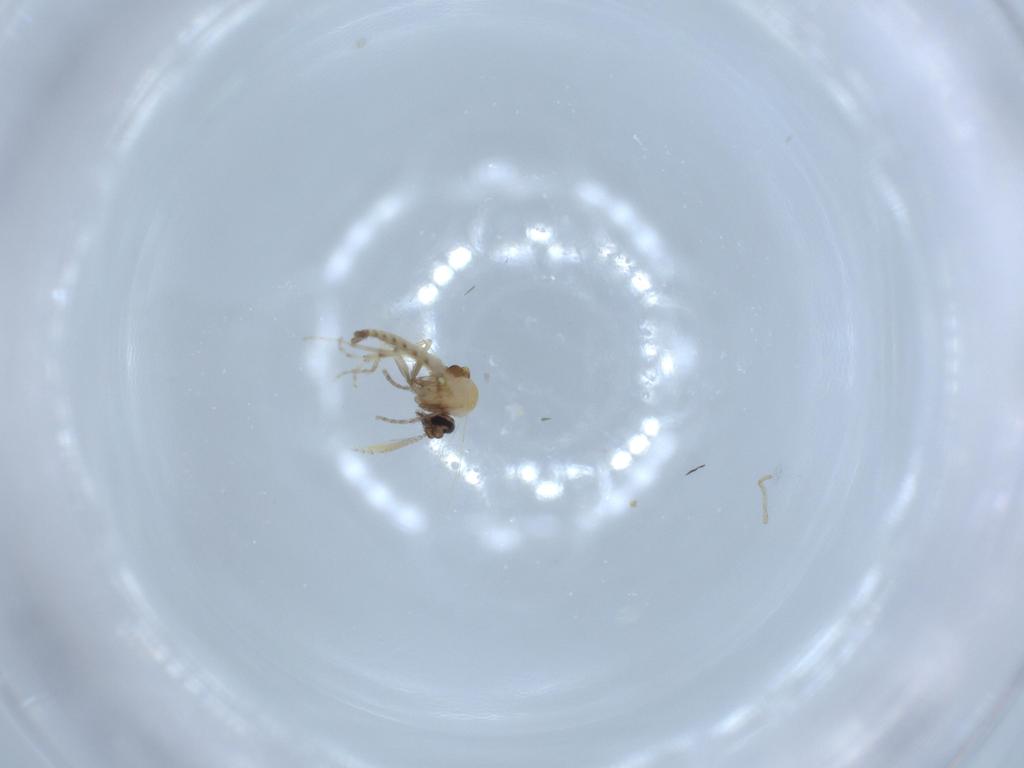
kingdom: Animalia
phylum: Arthropoda
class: Insecta
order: Diptera
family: Ceratopogonidae
